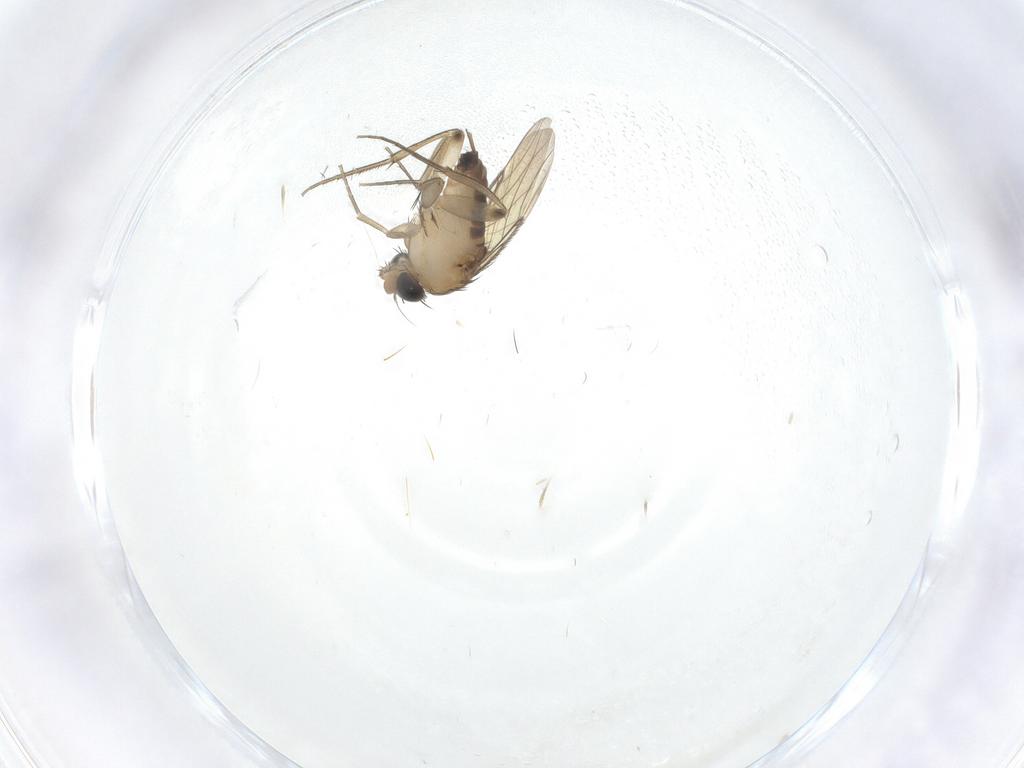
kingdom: Animalia
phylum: Arthropoda
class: Insecta
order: Diptera
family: Phoridae
